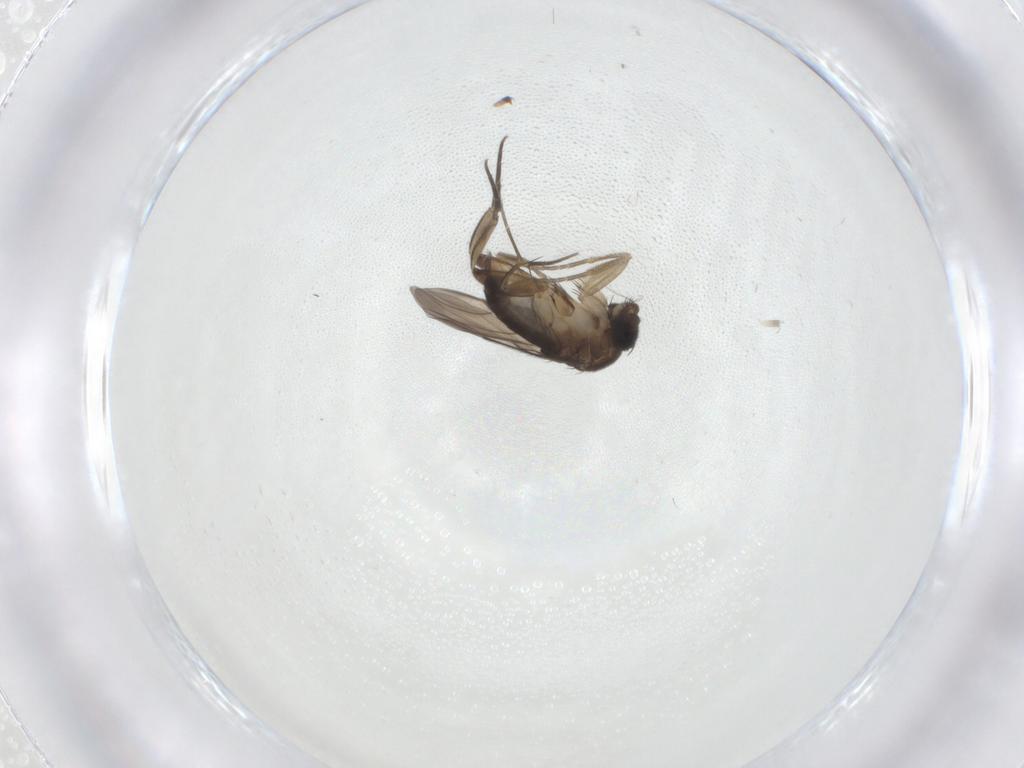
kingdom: Animalia
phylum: Arthropoda
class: Insecta
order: Diptera
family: Phoridae
